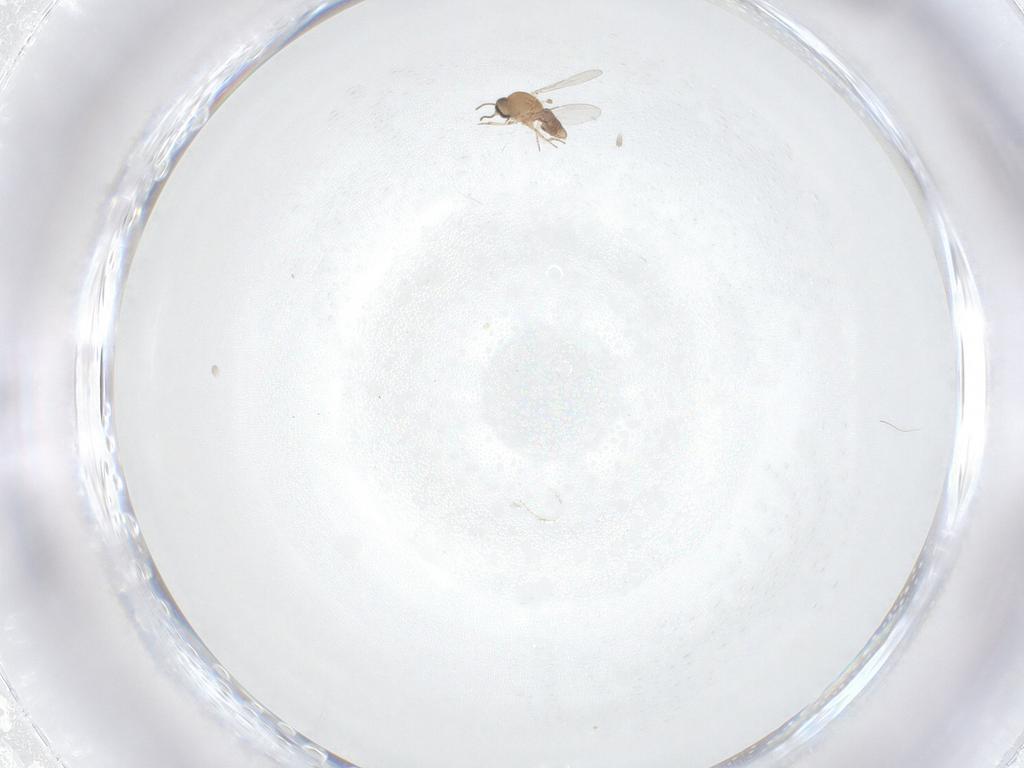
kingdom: Animalia
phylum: Arthropoda
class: Insecta
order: Diptera
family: Ceratopogonidae
